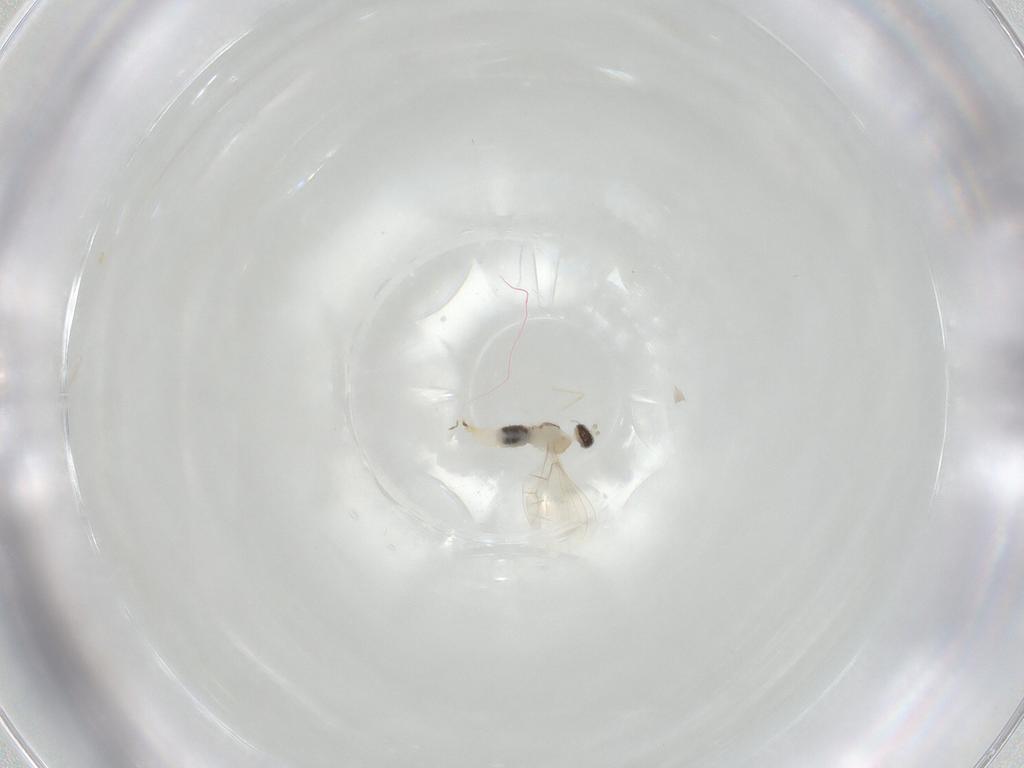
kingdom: Animalia
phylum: Arthropoda
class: Insecta
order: Diptera
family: Cecidomyiidae
